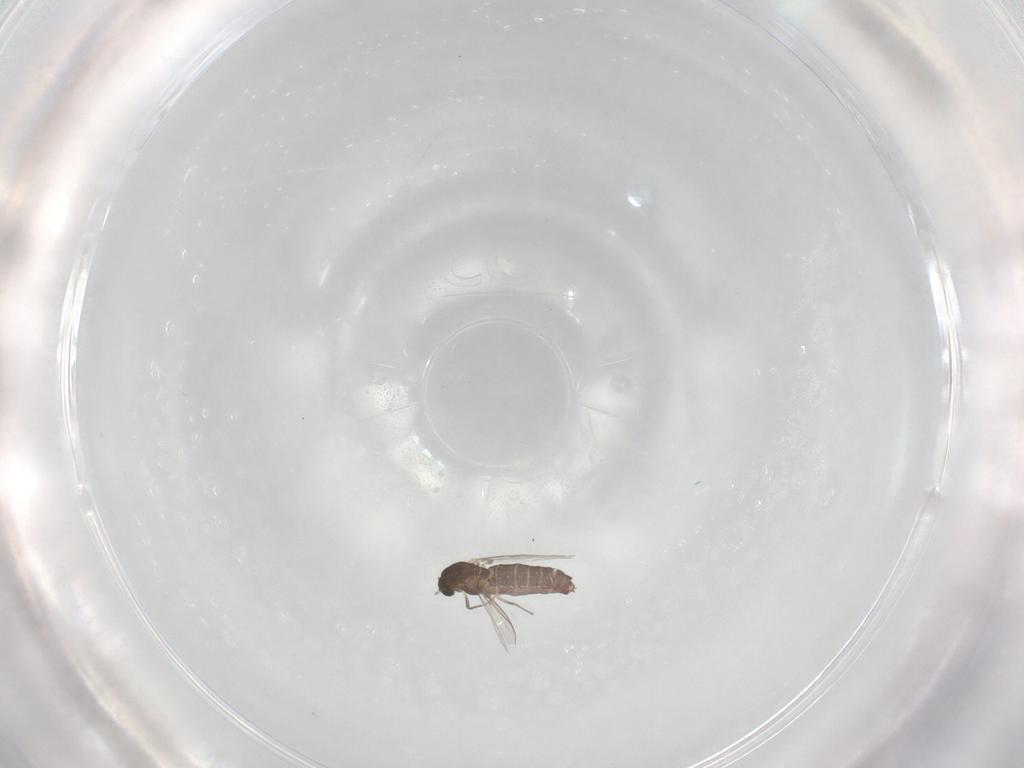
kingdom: Animalia
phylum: Arthropoda
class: Insecta
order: Diptera
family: Chironomidae
